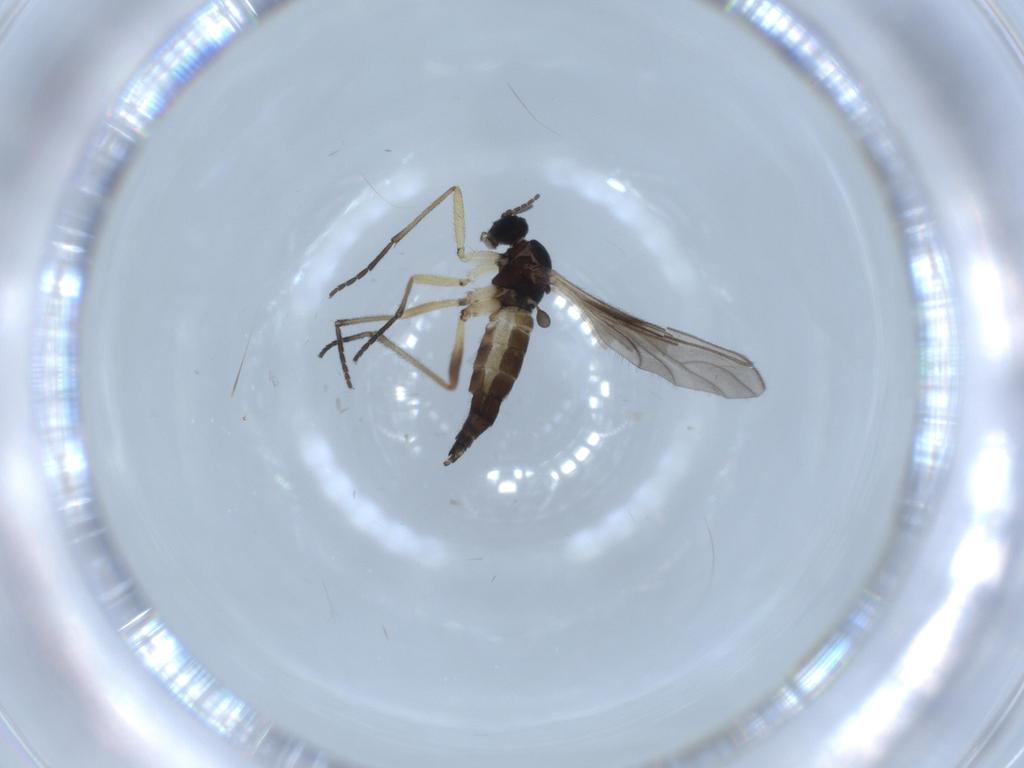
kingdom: Animalia
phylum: Arthropoda
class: Insecta
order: Diptera
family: Sciaridae
